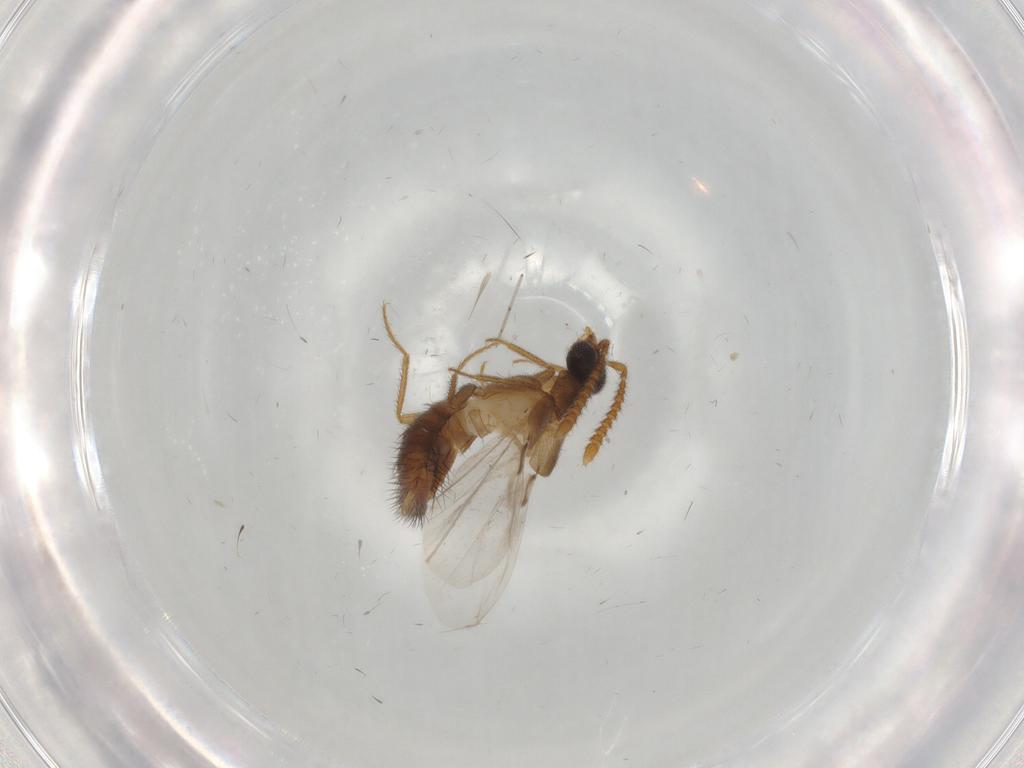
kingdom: Animalia
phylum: Arthropoda
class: Insecta
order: Coleoptera
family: Staphylinidae
